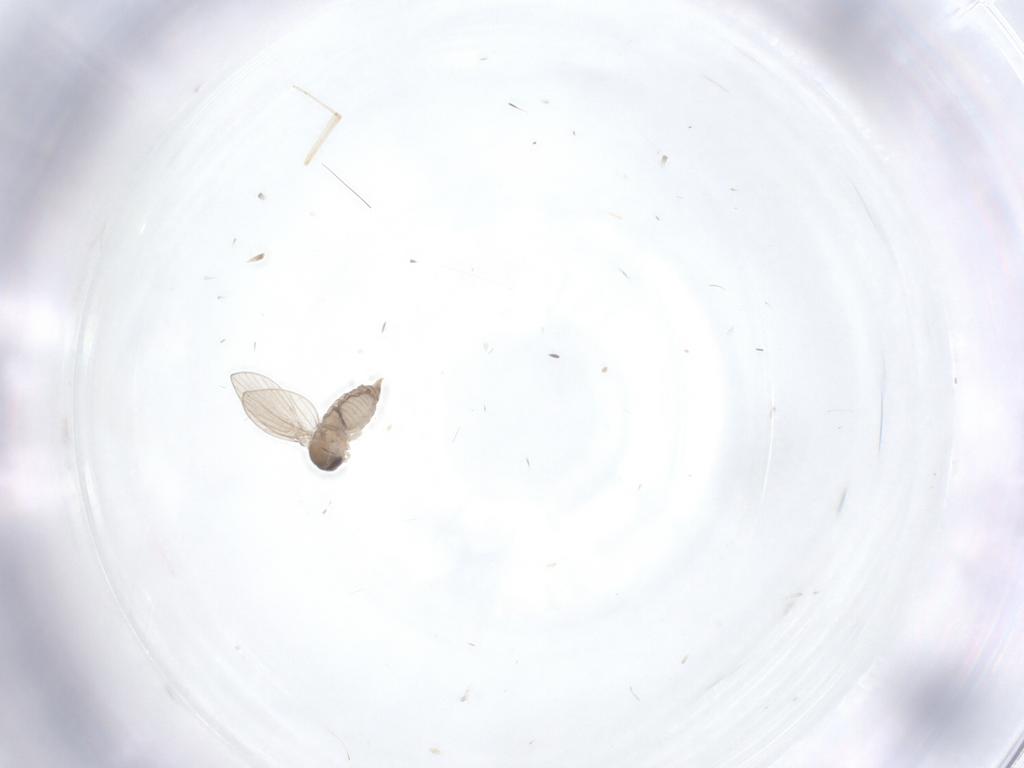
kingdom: Animalia
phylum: Arthropoda
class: Insecta
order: Diptera
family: Psychodidae
